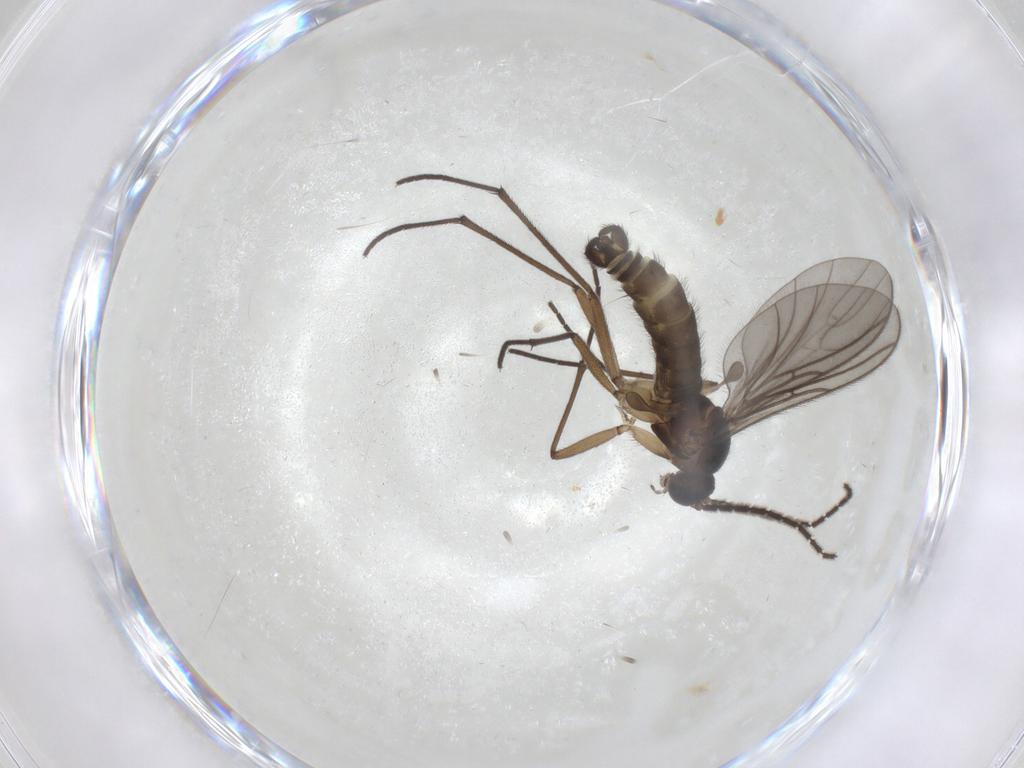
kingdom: Animalia
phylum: Arthropoda
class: Insecta
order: Diptera
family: Sciaridae
